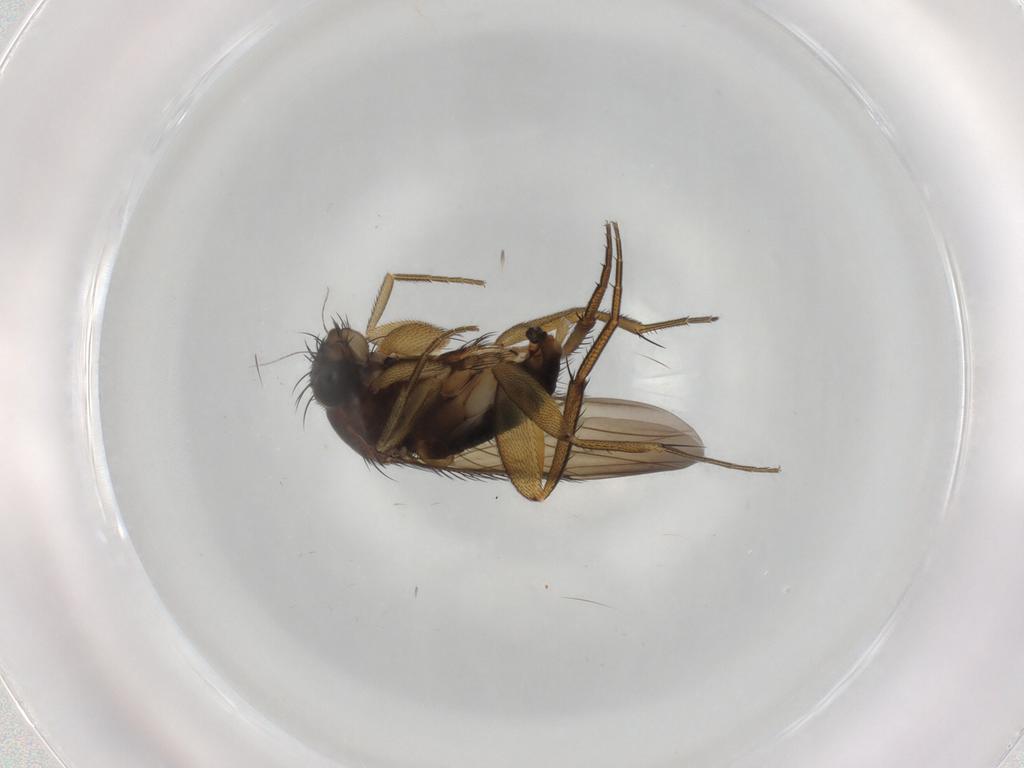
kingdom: Animalia
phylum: Arthropoda
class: Insecta
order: Diptera
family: Phoridae
